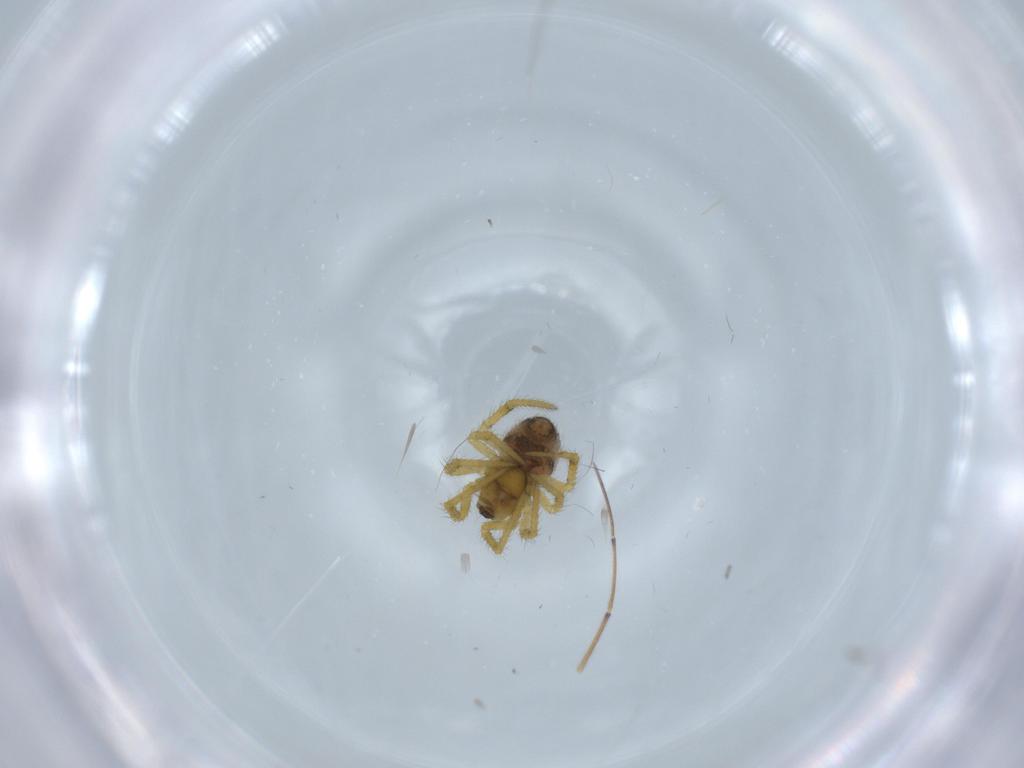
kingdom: Animalia
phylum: Arthropoda
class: Arachnida
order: Araneae
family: Theridiidae
